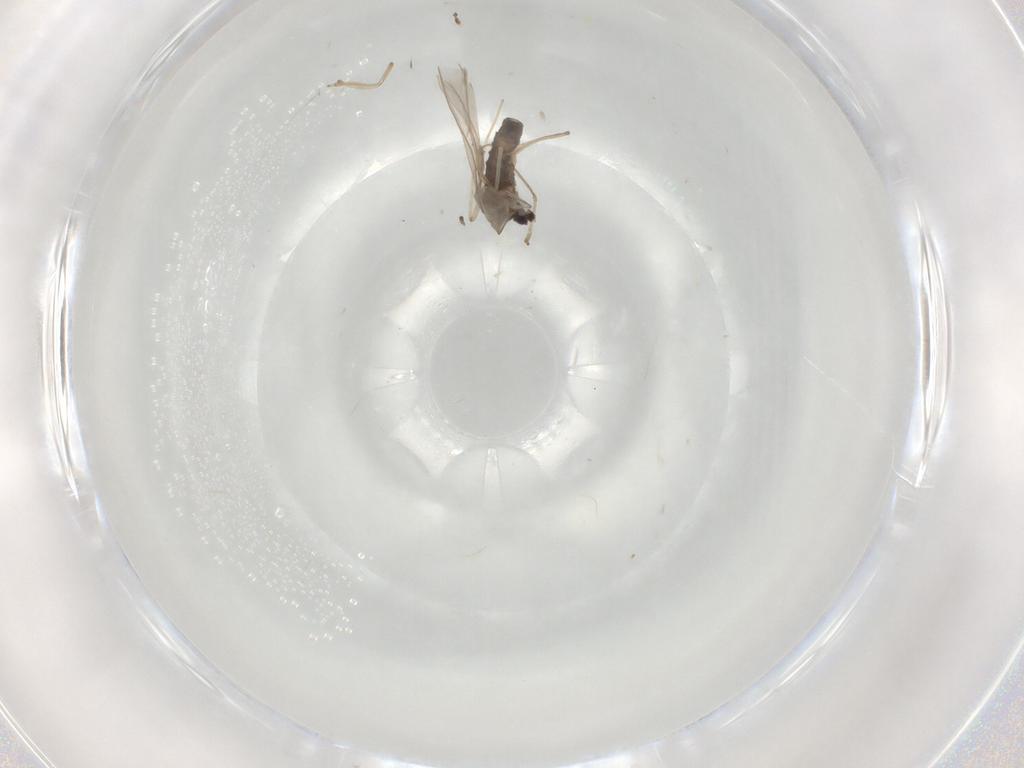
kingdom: Animalia
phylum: Arthropoda
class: Insecta
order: Diptera
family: Cecidomyiidae
